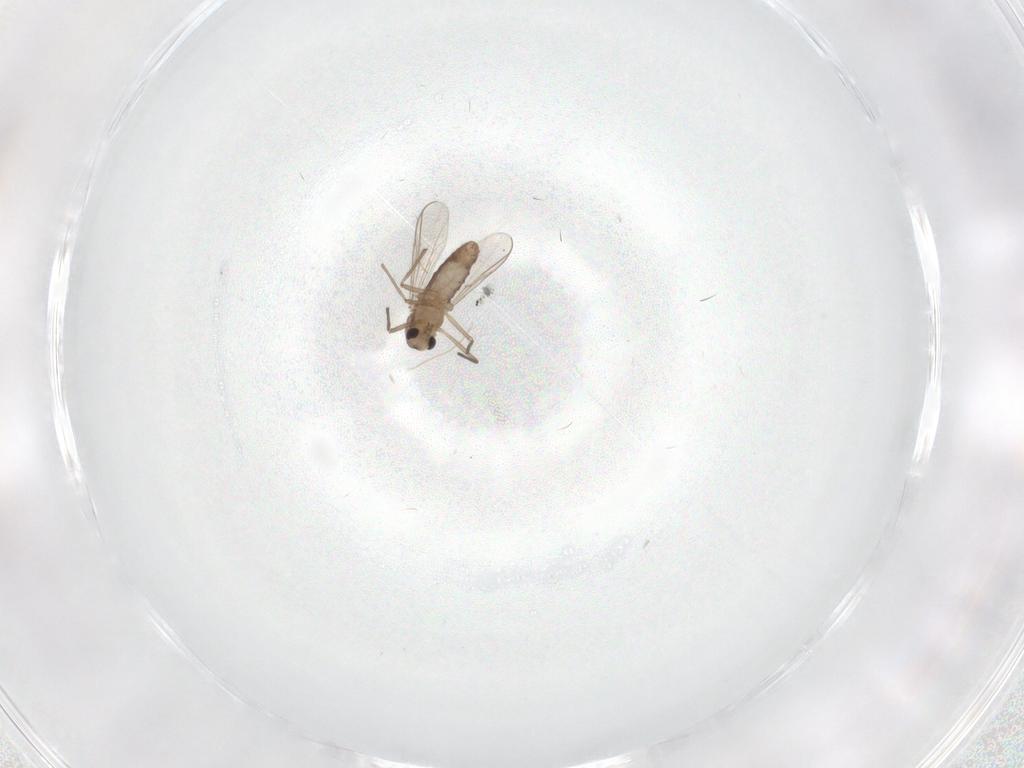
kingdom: Animalia
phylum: Arthropoda
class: Insecta
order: Diptera
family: Chironomidae
